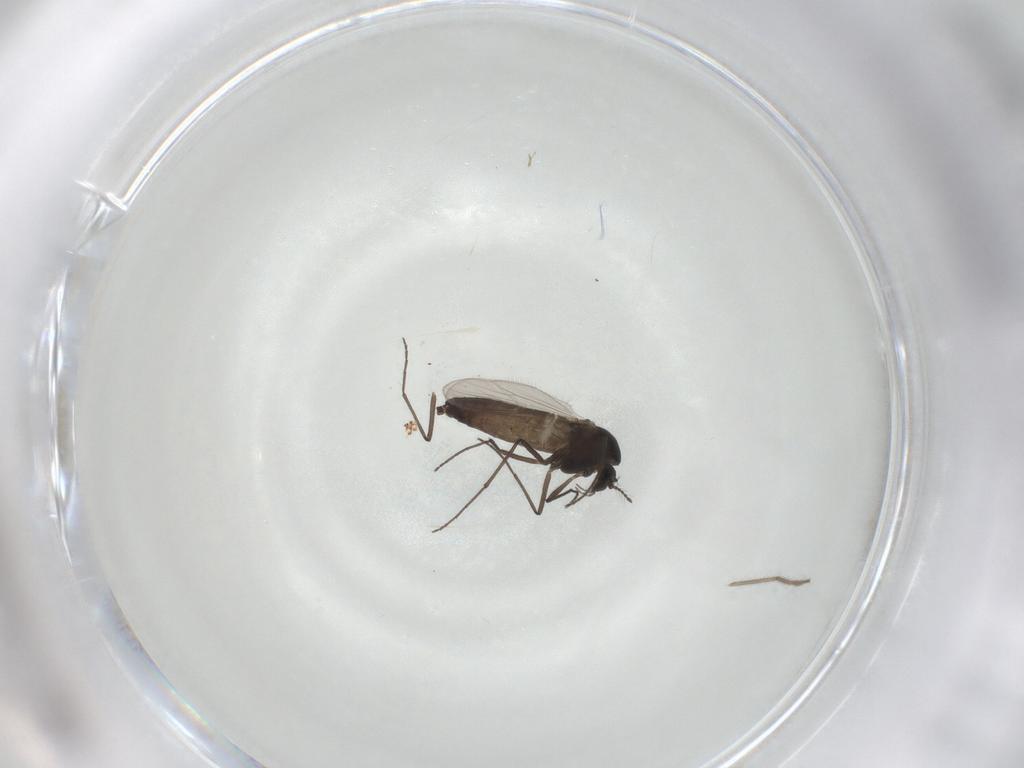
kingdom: Animalia
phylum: Arthropoda
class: Insecta
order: Diptera
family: Chironomidae
